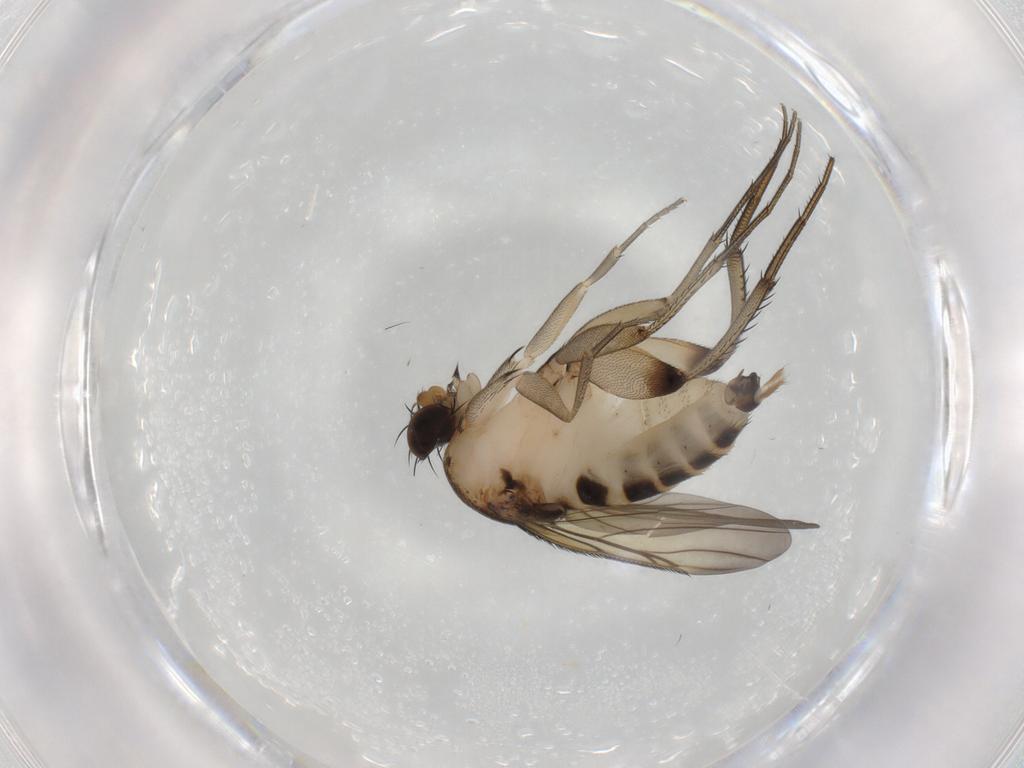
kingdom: Animalia
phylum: Arthropoda
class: Insecta
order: Diptera
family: Phoridae
